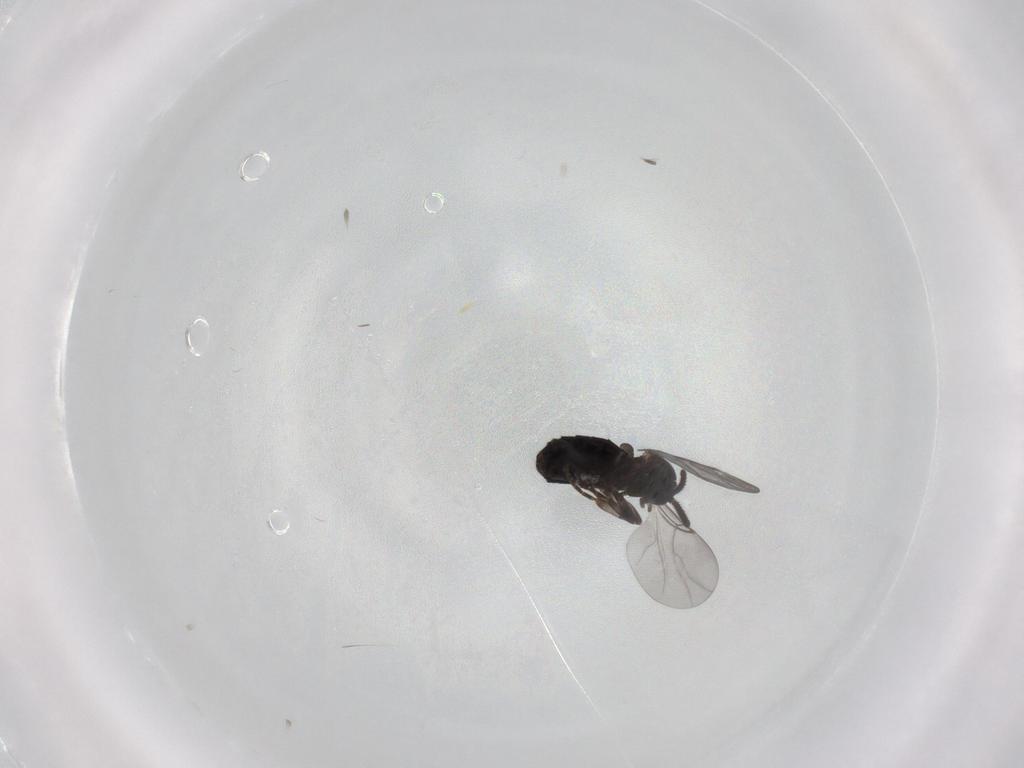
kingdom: Animalia
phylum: Arthropoda
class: Insecta
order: Diptera
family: Scatopsidae
